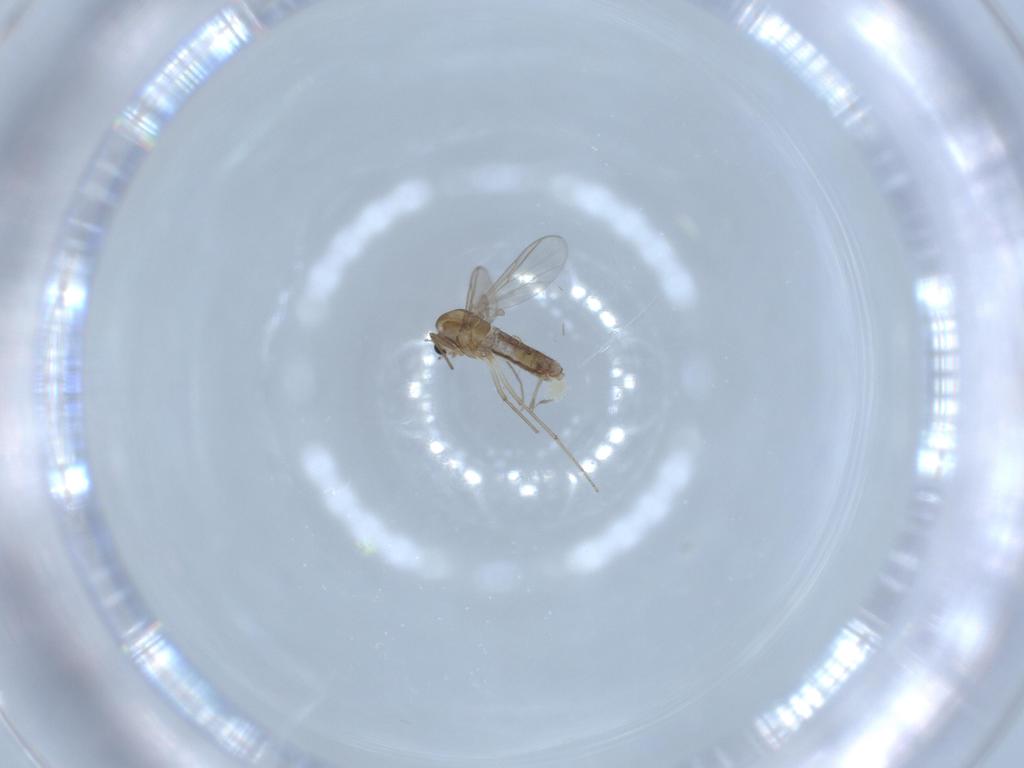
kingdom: Animalia
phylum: Arthropoda
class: Insecta
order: Diptera
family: Chironomidae
